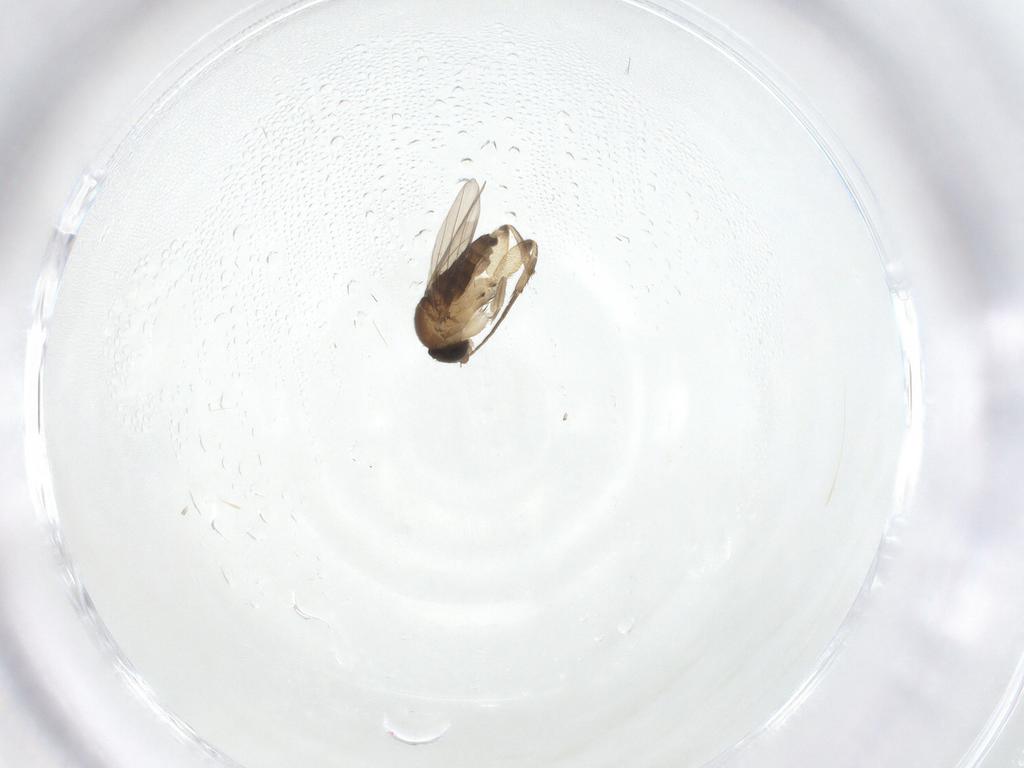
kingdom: Animalia
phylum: Arthropoda
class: Insecta
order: Diptera
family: Phoridae
